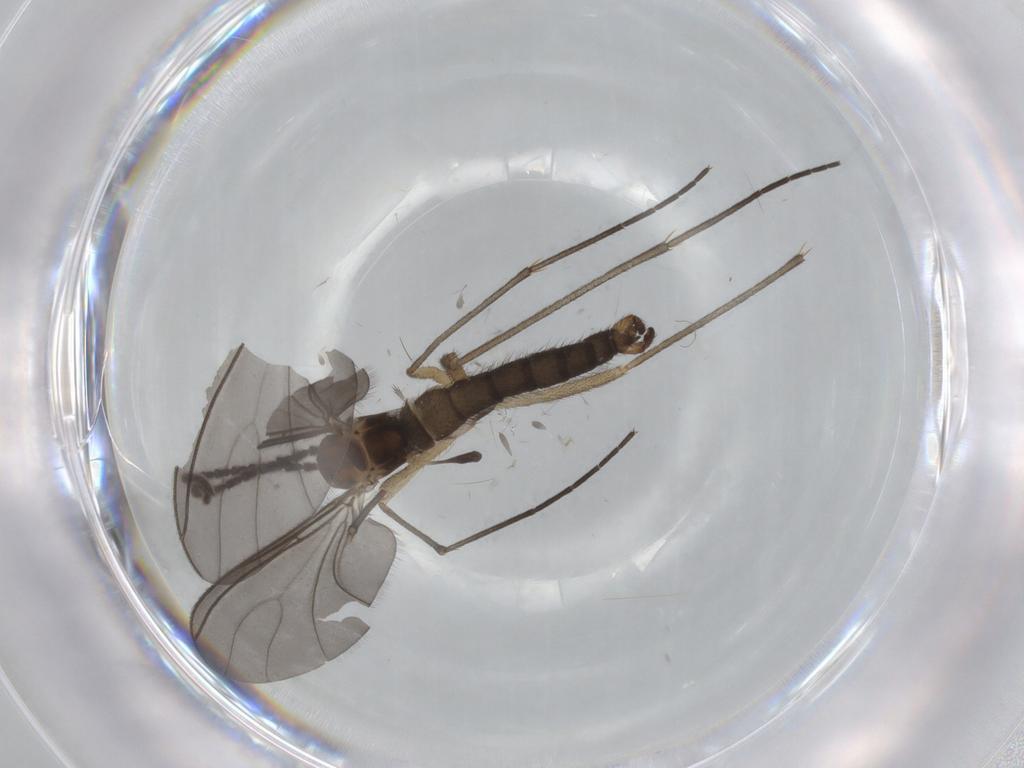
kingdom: Animalia
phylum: Arthropoda
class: Insecta
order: Diptera
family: Sciaridae
